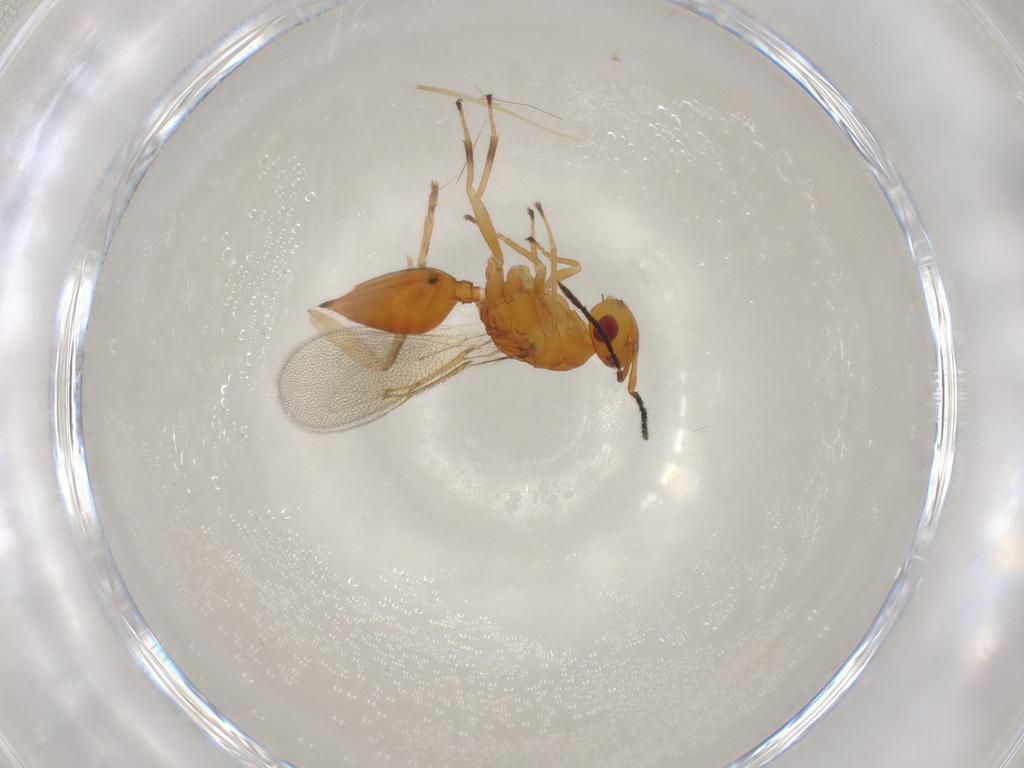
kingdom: Animalia
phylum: Arthropoda
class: Insecta
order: Hymenoptera
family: Eulophidae
